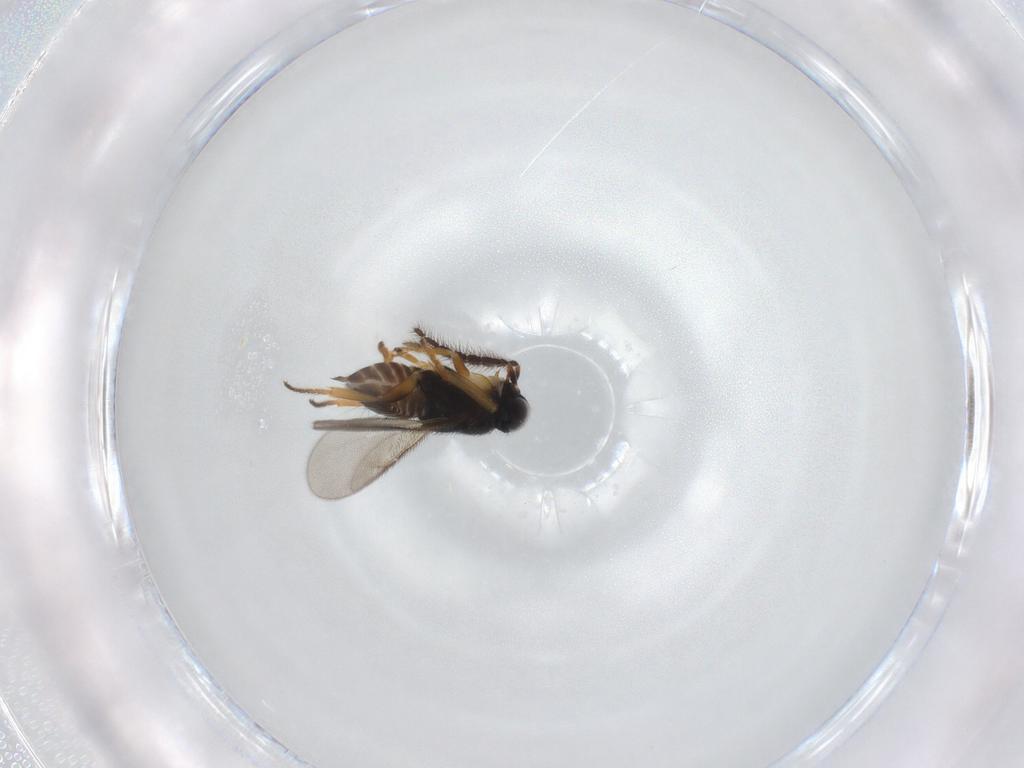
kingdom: Animalia
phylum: Arthropoda
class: Insecta
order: Hymenoptera
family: Encyrtidae
